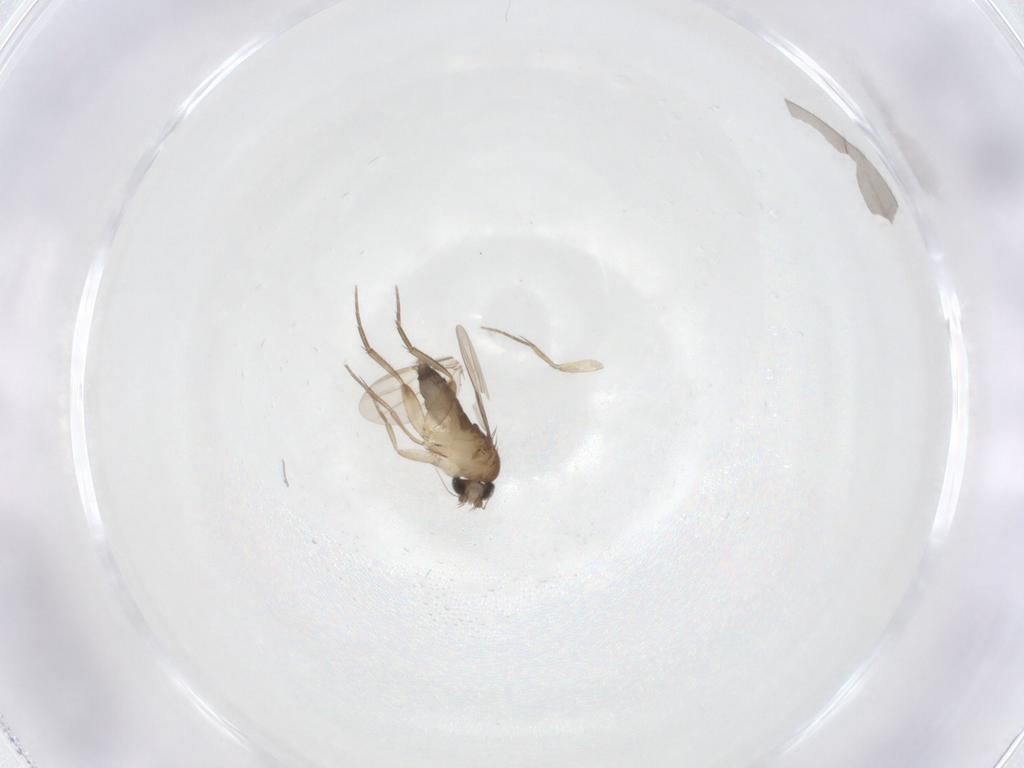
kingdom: Animalia
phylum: Arthropoda
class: Insecta
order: Diptera
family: Phoridae
